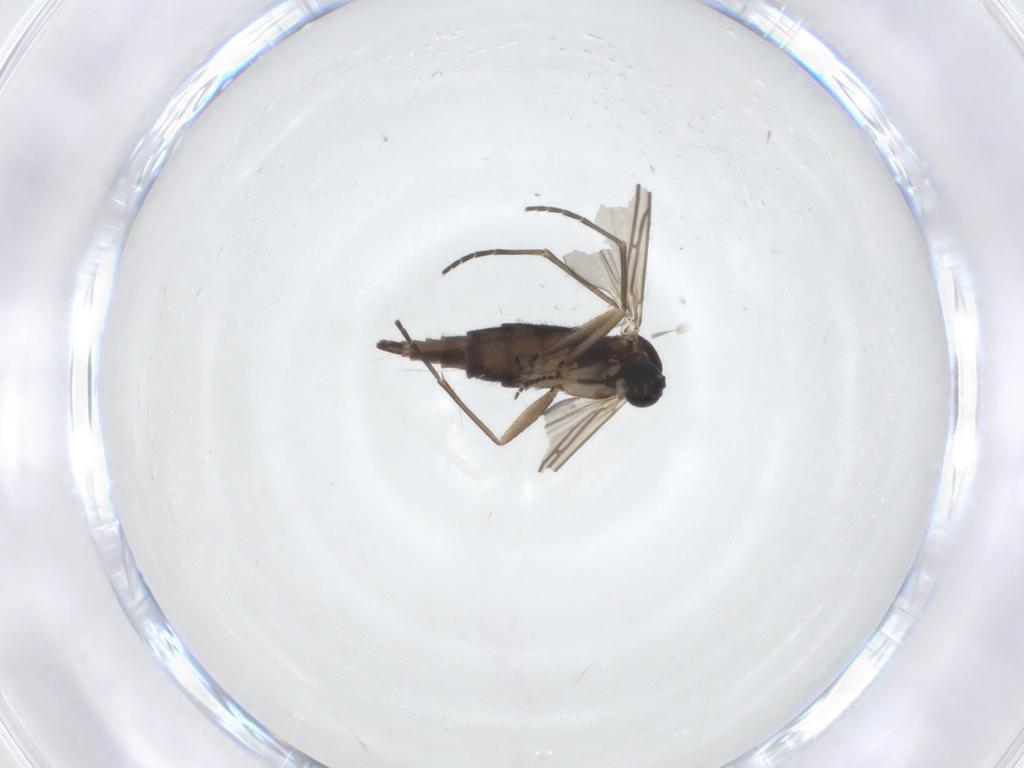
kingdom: Animalia
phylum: Arthropoda
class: Insecta
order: Diptera
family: Sciaridae
